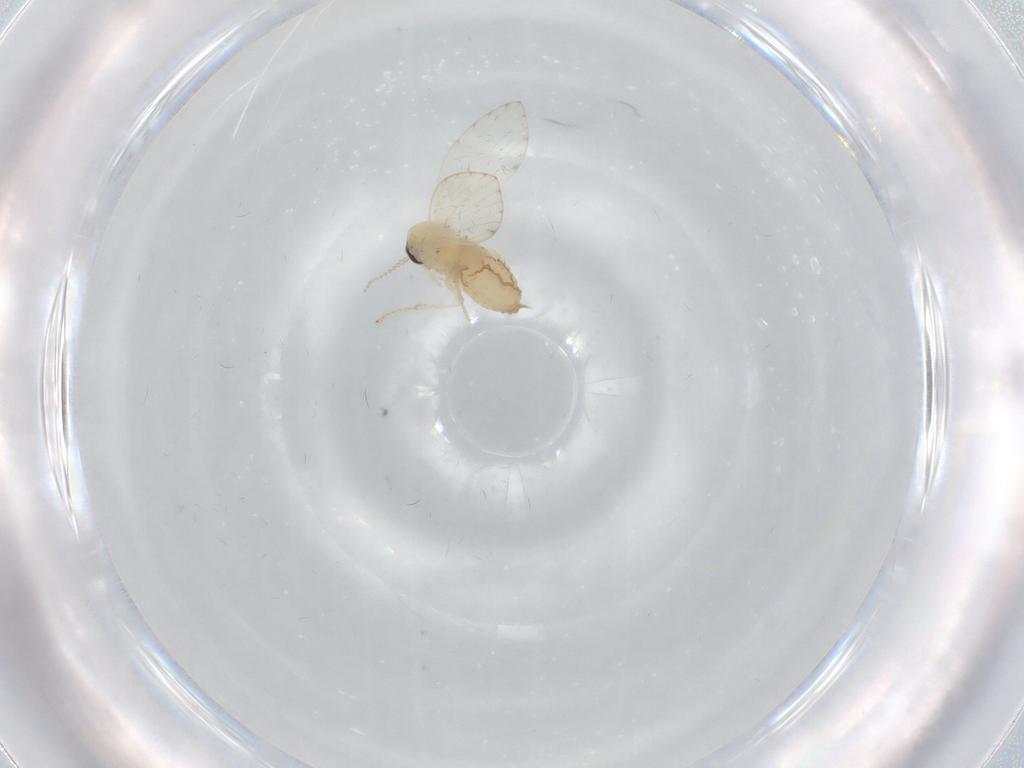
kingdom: Animalia
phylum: Arthropoda
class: Insecta
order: Diptera
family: Psychodidae
